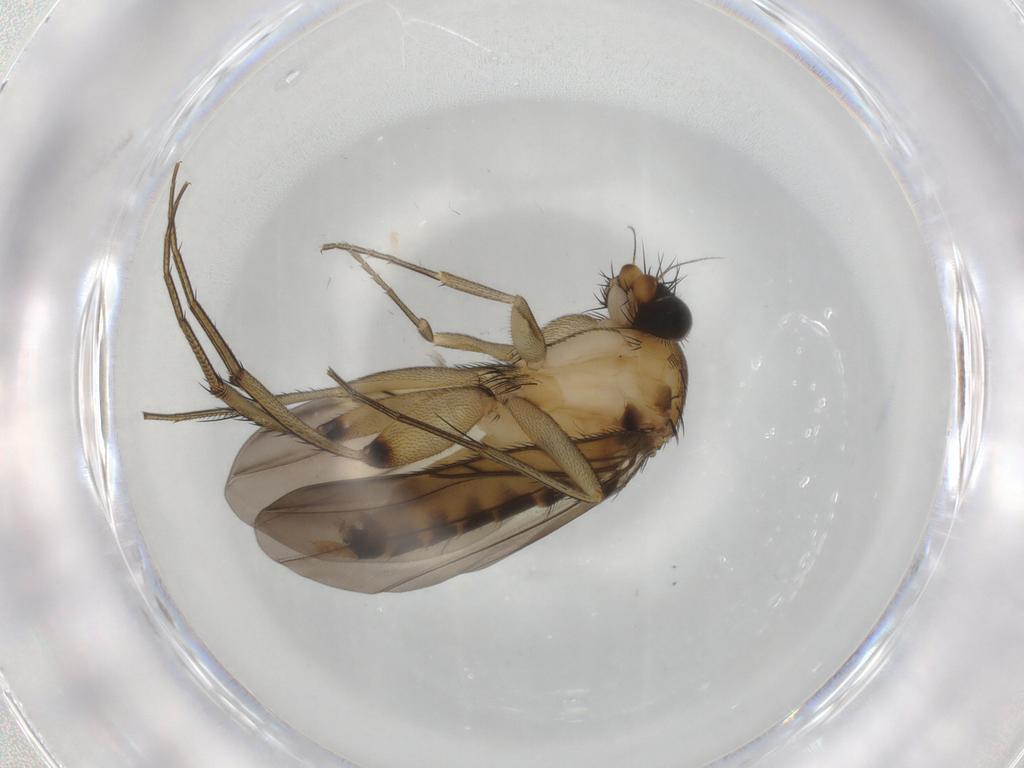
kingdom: Animalia
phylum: Arthropoda
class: Insecta
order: Diptera
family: Phoridae
